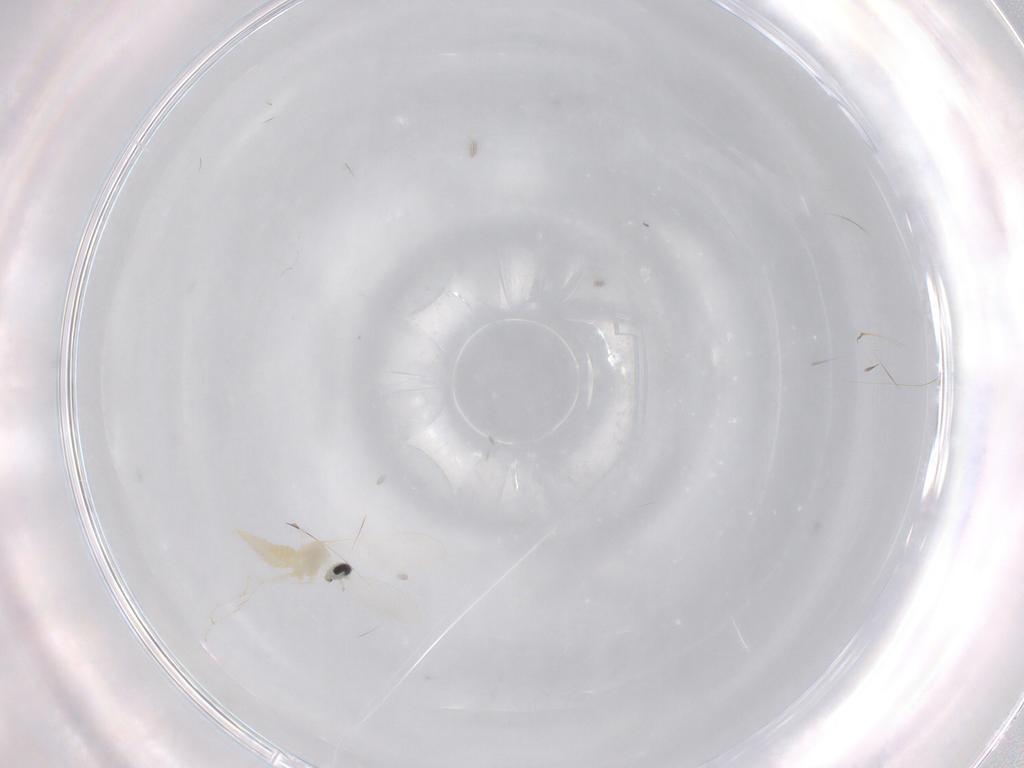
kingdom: Animalia
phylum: Arthropoda
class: Insecta
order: Diptera
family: Cecidomyiidae
